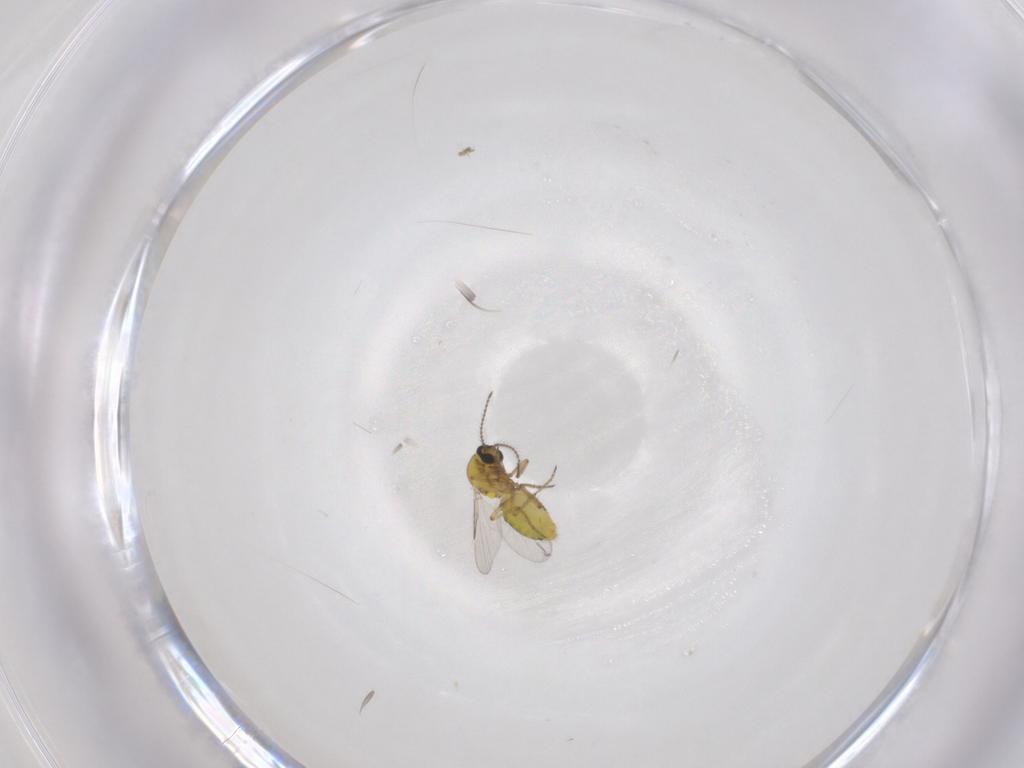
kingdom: Animalia
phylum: Arthropoda
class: Insecta
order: Diptera
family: Ceratopogonidae
